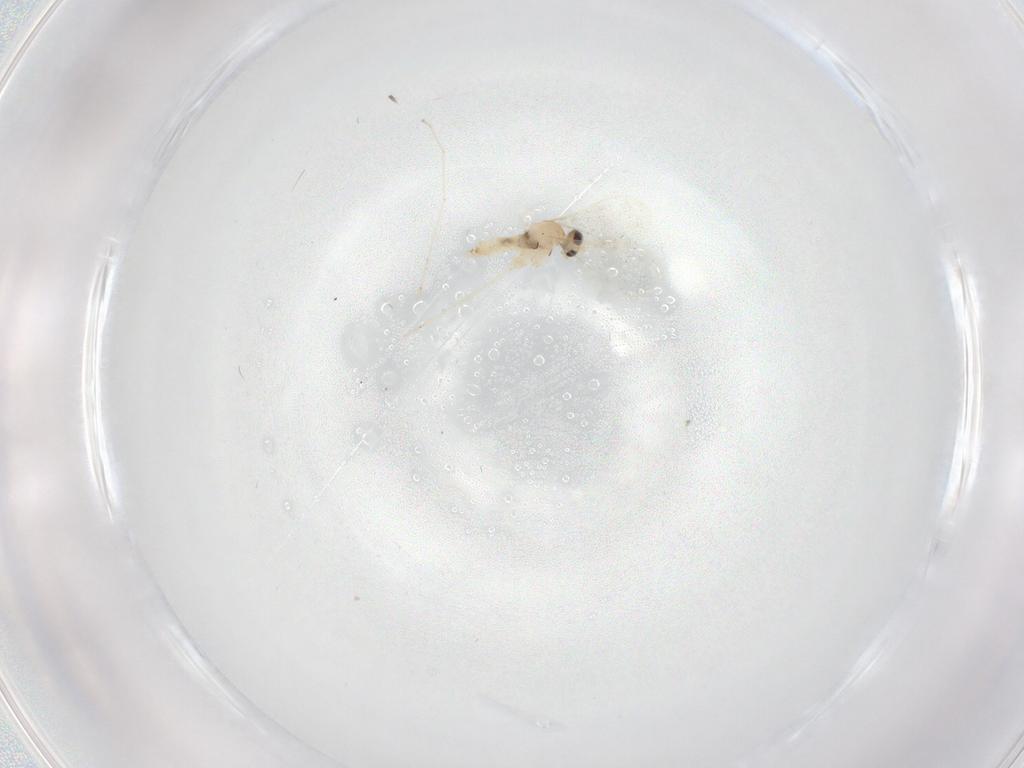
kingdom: Animalia
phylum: Arthropoda
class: Insecta
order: Diptera
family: Cecidomyiidae
